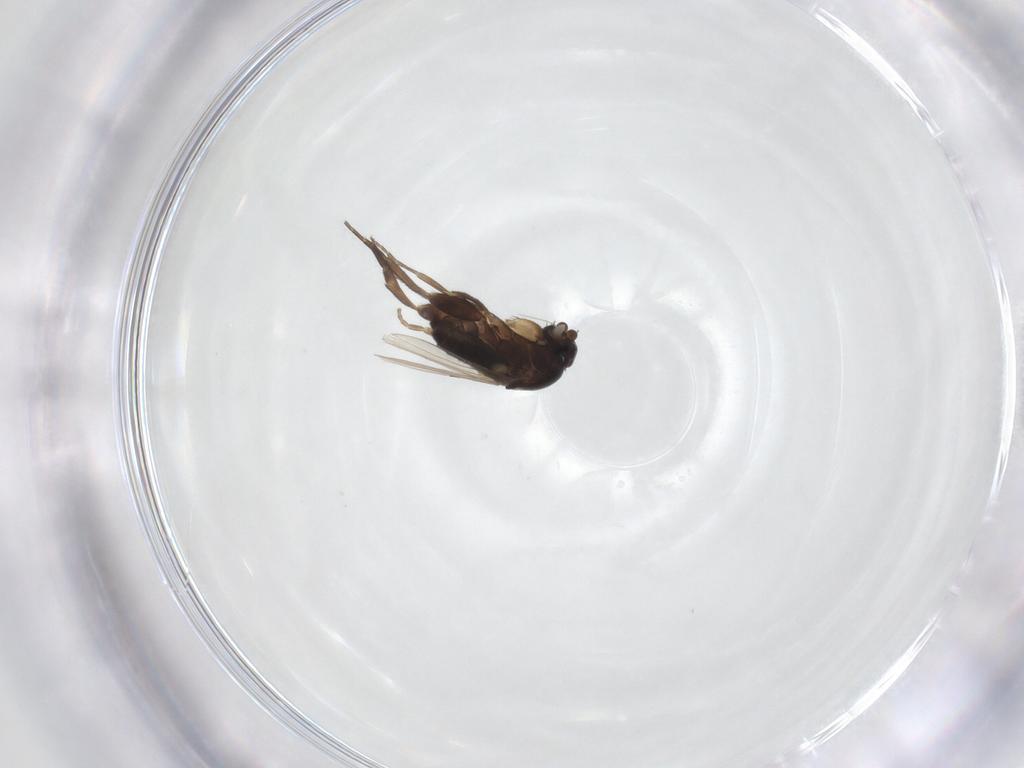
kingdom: Animalia
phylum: Arthropoda
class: Insecta
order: Diptera
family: Phoridae
